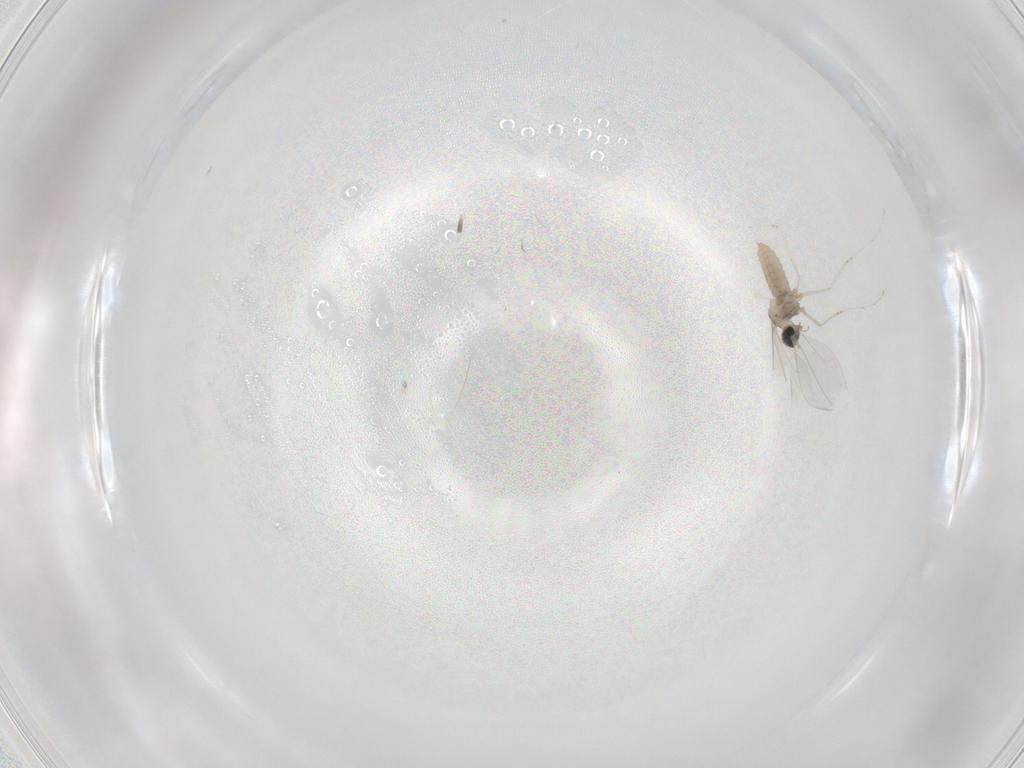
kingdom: Animalia
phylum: Arthropoda
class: Insecta
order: Diptera
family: Cecidomyiidae
